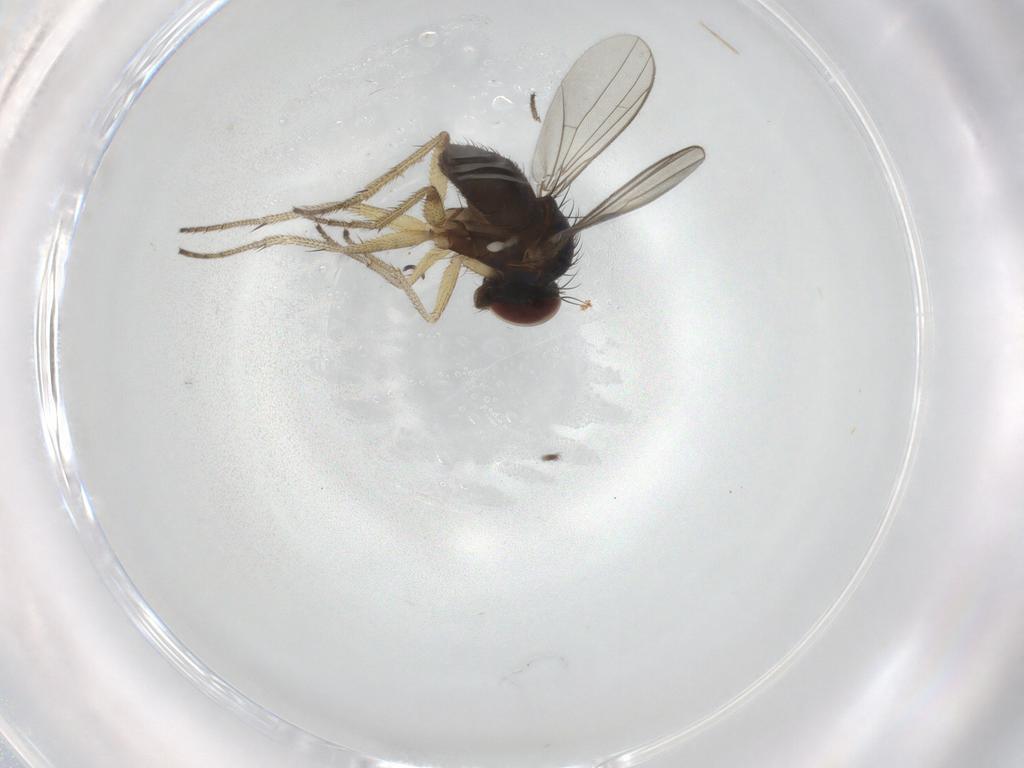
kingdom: Animalia
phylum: Arthropoda
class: Insecta
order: Diptera
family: Dolichopodidae
